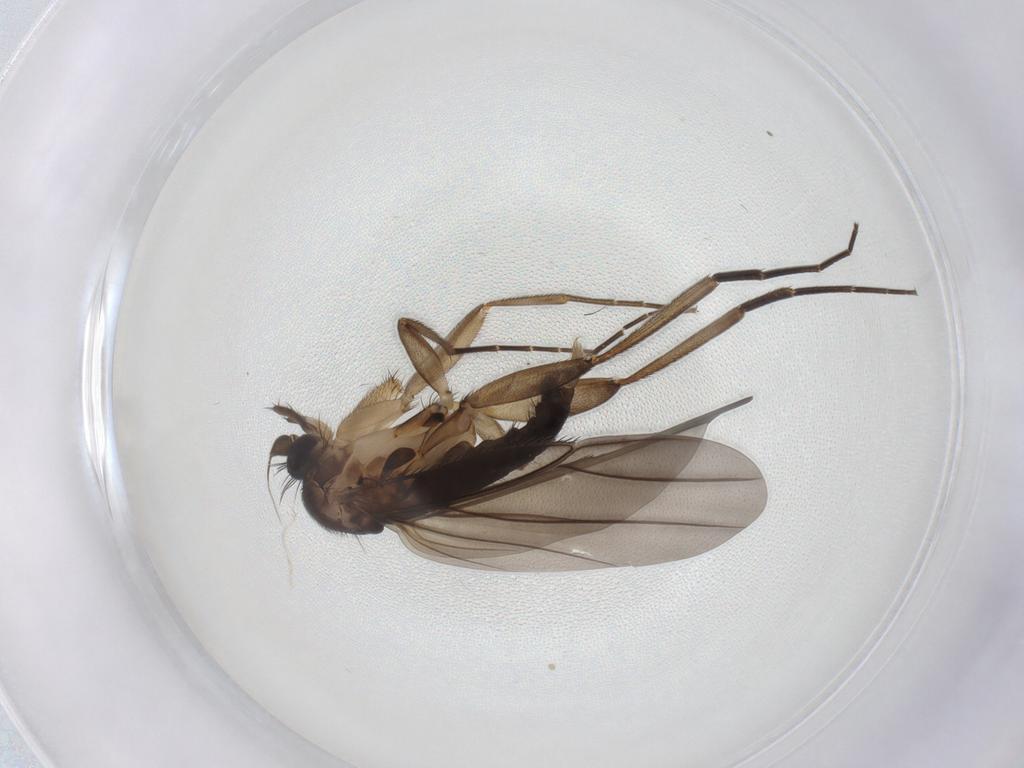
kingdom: Animalia
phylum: Arthropoda
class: Insecta
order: Diptera
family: Phoridae
